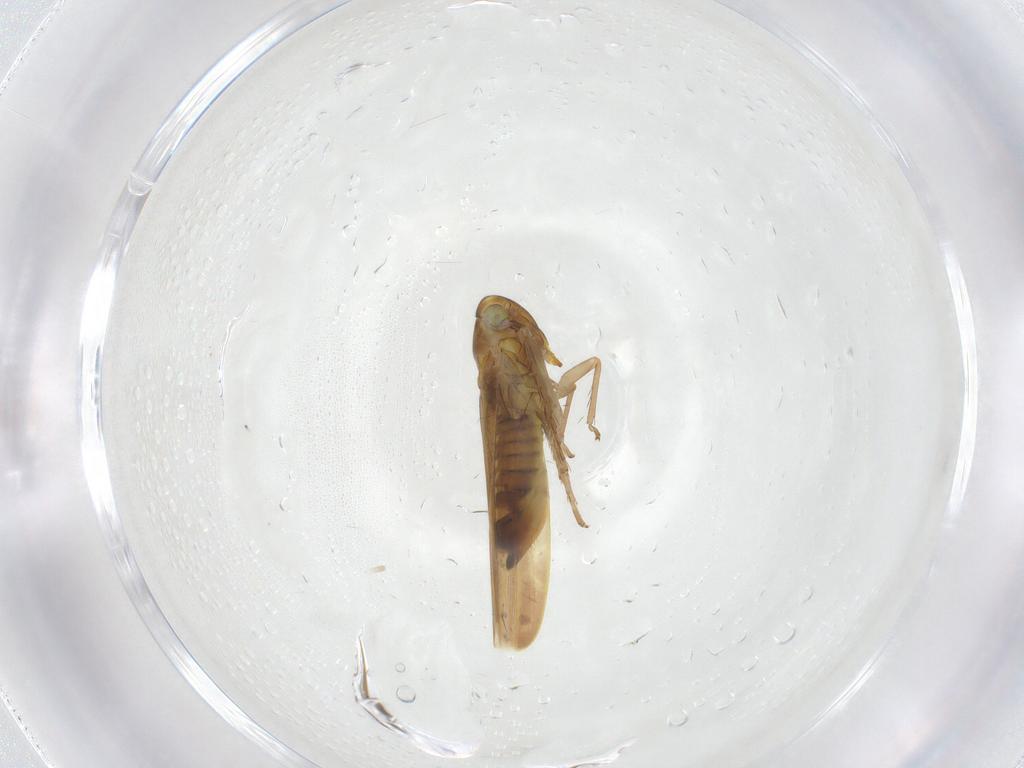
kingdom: Animalia
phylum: Arthropoda
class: Insecta
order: Hemiptera
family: Cicadellidae
